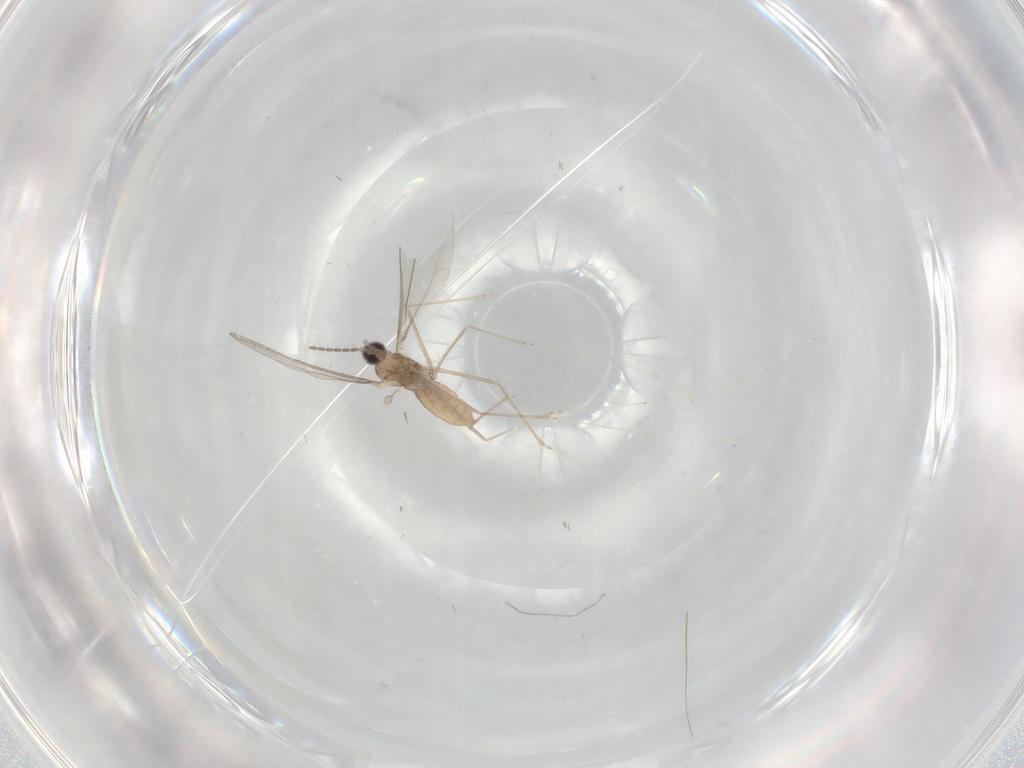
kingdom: Animalia
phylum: Arthropoda
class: Insecta
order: Diptera
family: Cecidomyiidae
